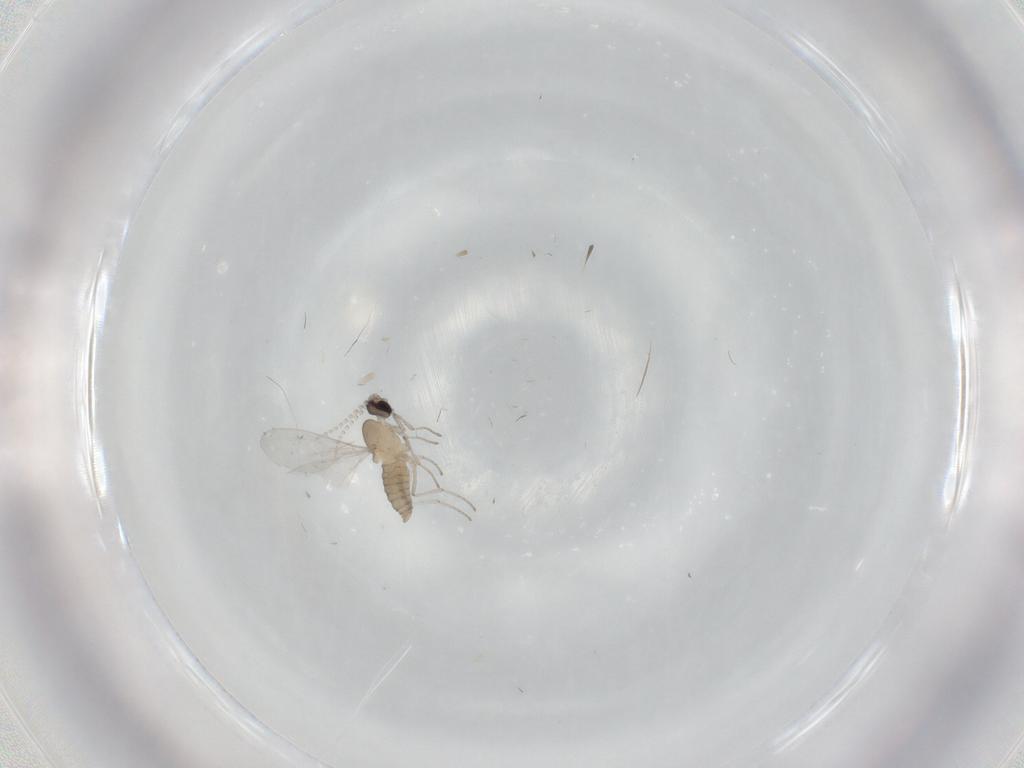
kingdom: Animalia
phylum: Arthropoda
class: Insecta
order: Diptera
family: Cecidomyiidae
